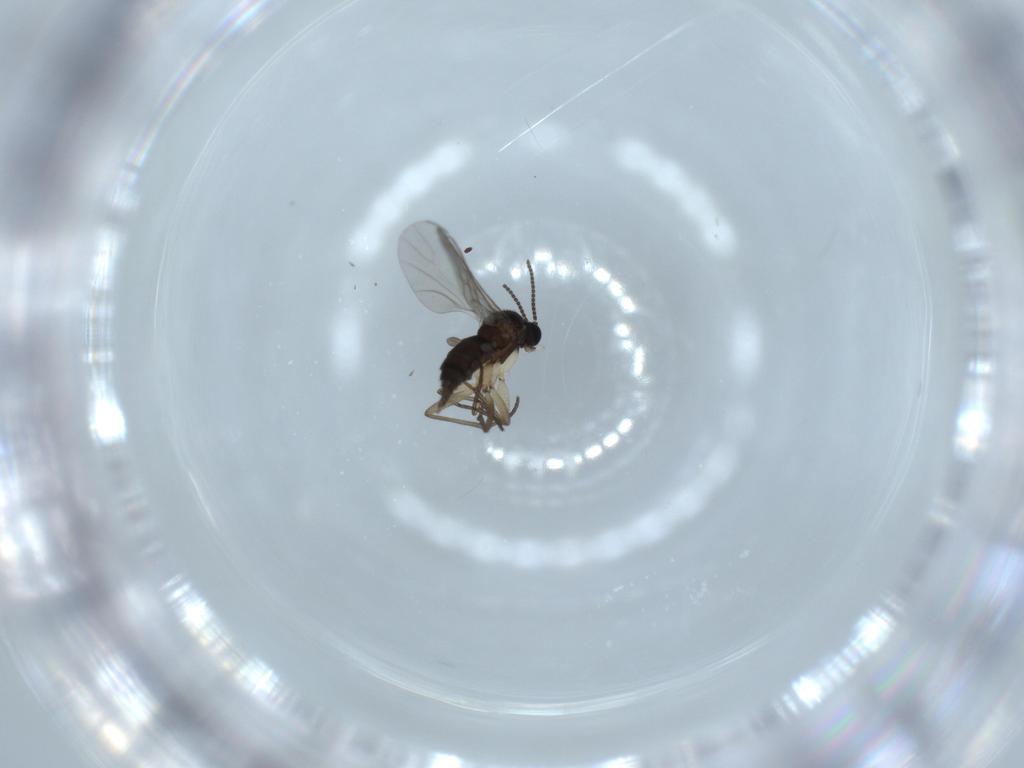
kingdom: Animalia
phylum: Arthropoda
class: Insecta
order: Diptera
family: Sciaridae
